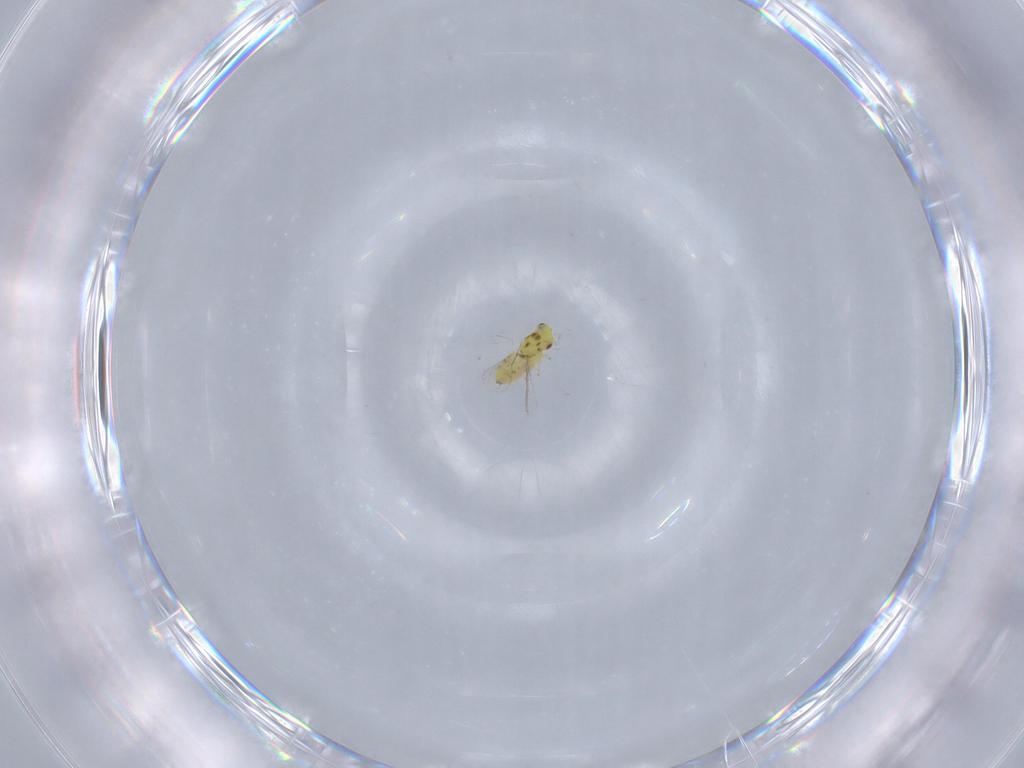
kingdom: Animalia
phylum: Arthropoda
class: Insecta
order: Hymenoptera
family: Eulophidae
